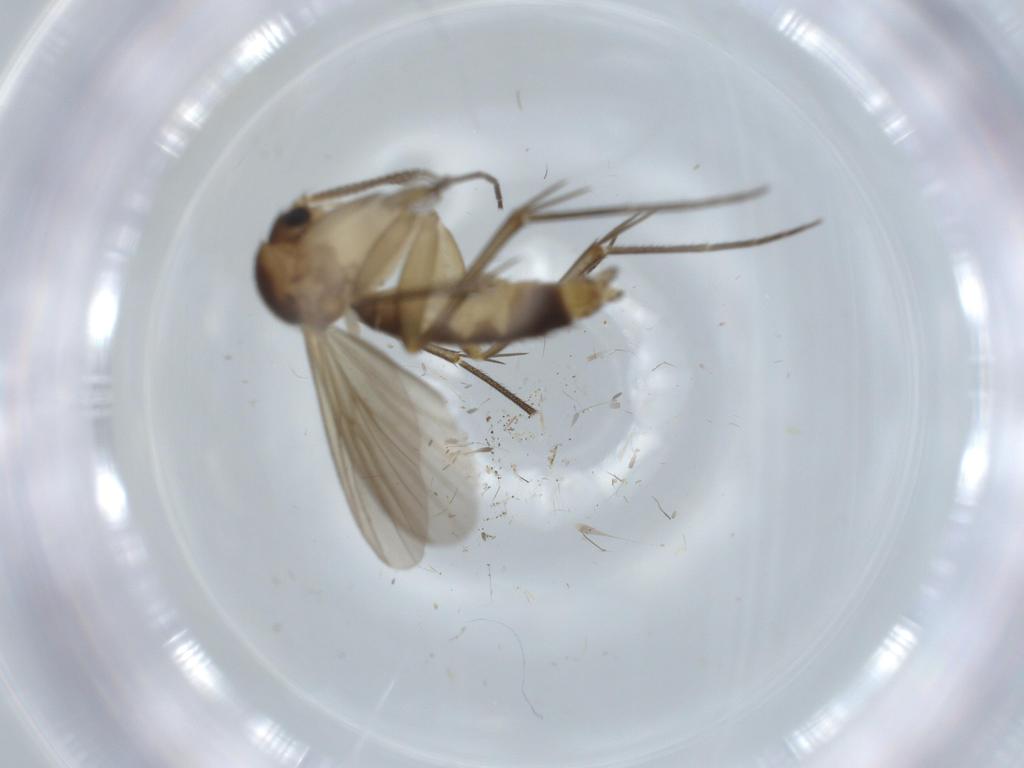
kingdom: Animalia
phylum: Arthropoda
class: Insecta
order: Diptera
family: Mycetophilidae
